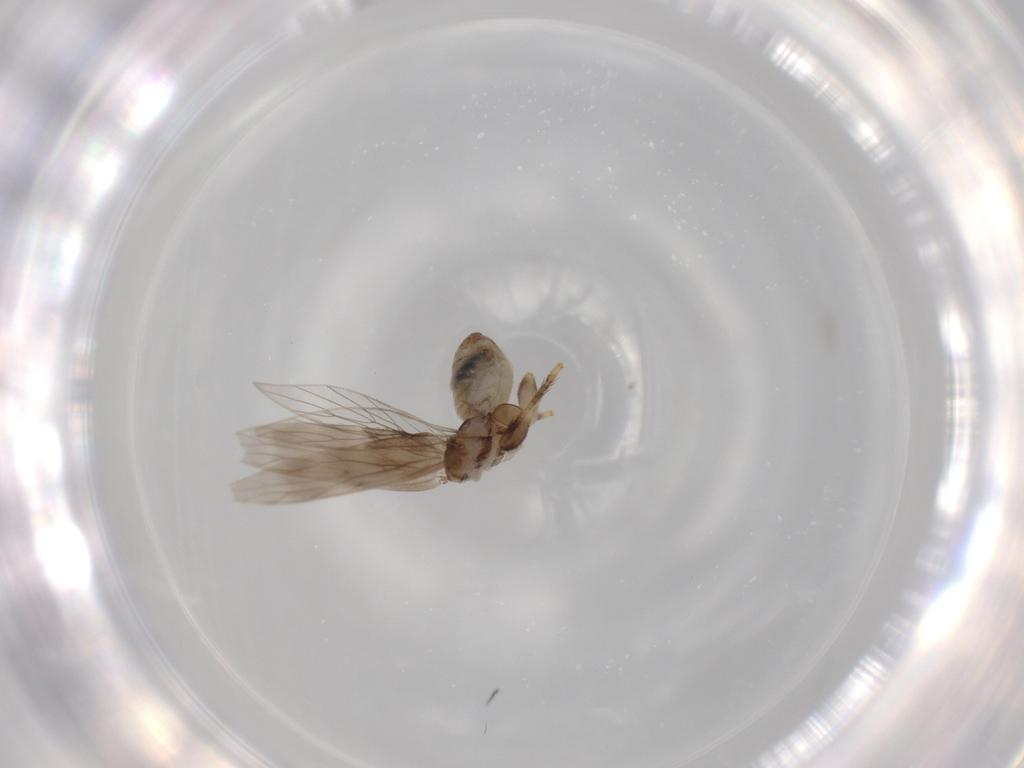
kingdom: Animalia
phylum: Arthropoda
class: Insecta
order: Psocodea
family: Lepidopsocidae
